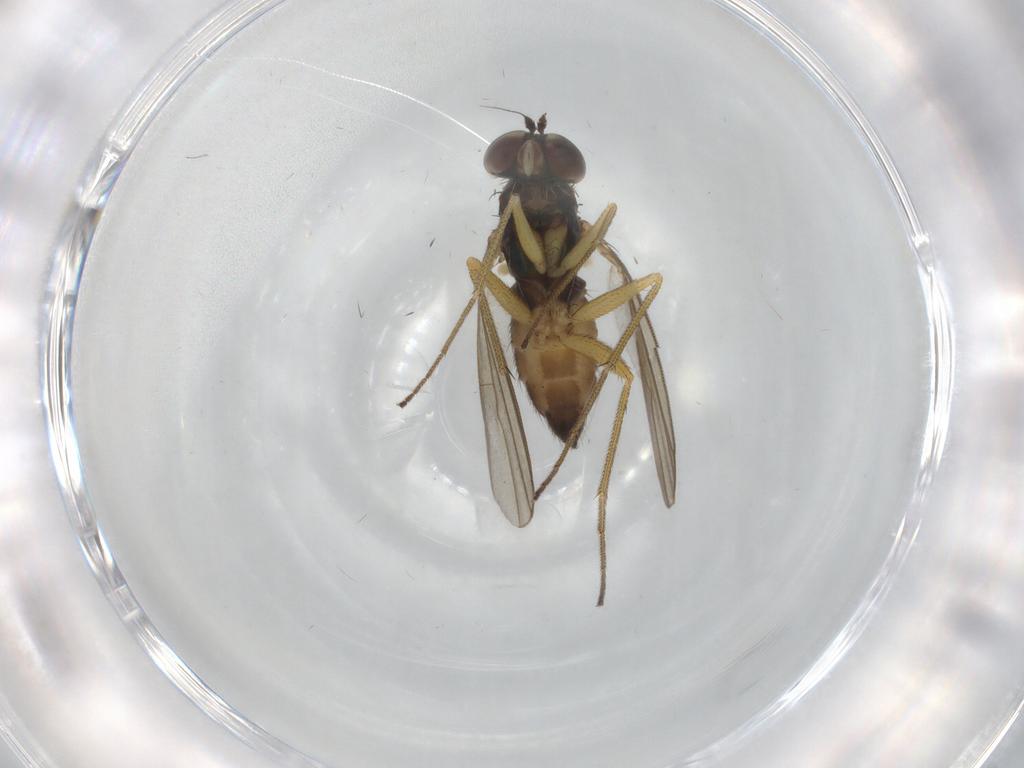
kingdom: Animalia
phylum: Arthropoda
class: Insecta
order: Diptera
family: Dolichopodidae
